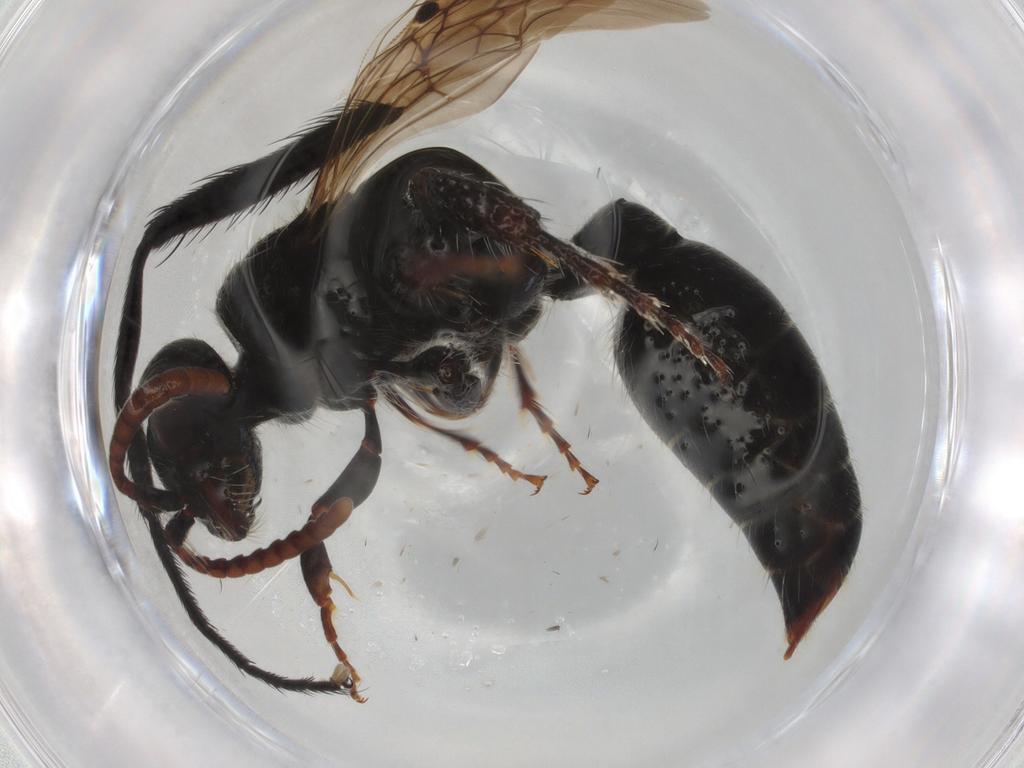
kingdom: Animalia
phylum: Arthropoda
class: Insecta
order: Hymenoptera
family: Tiphiidae
